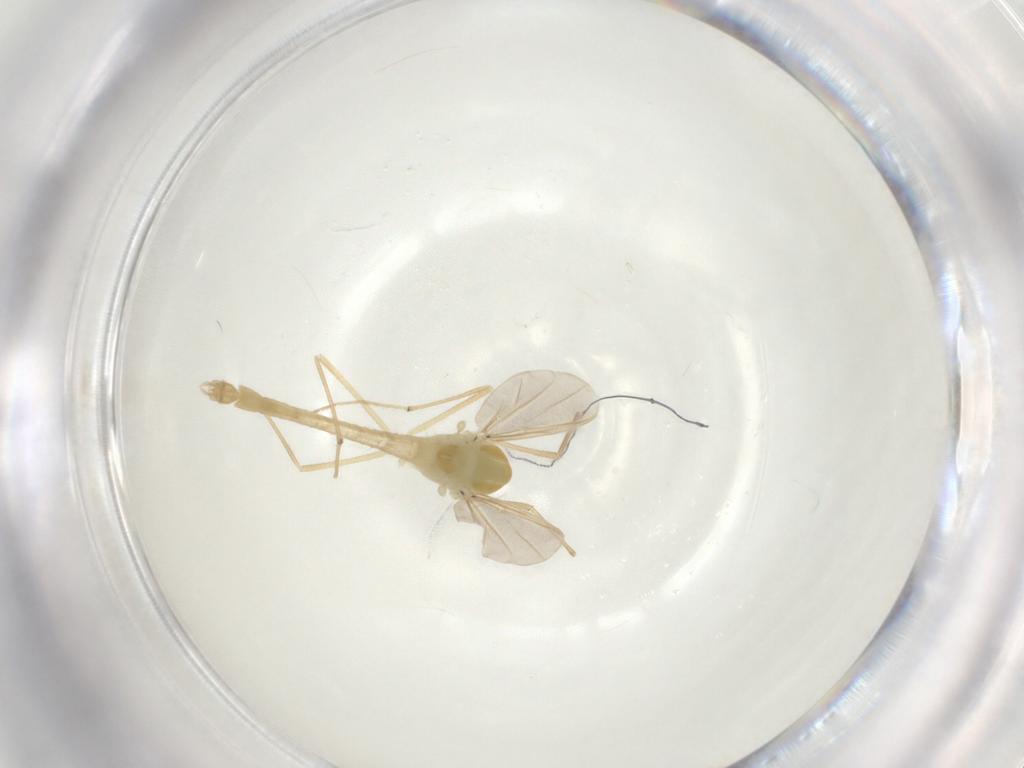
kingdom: Animalia
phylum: Arthropoda
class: Insecta
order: Diptera
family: Chironomidae
